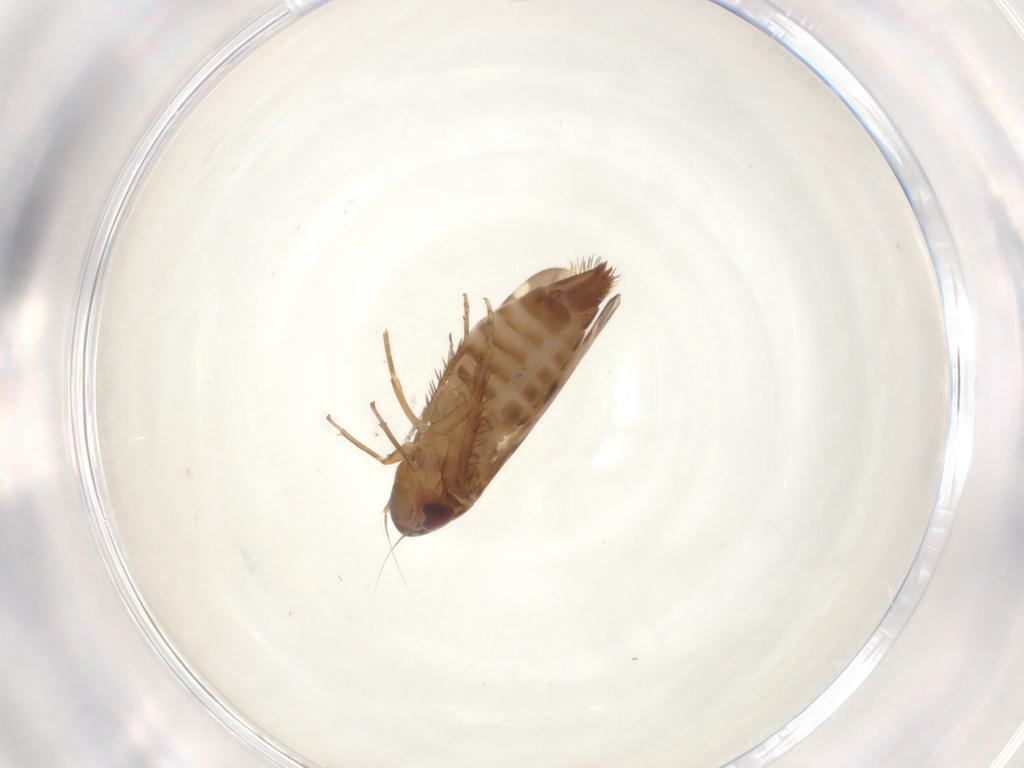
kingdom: Animalia
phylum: Arthropoda
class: Insecta
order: Hemiptera
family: Cicadellidae
